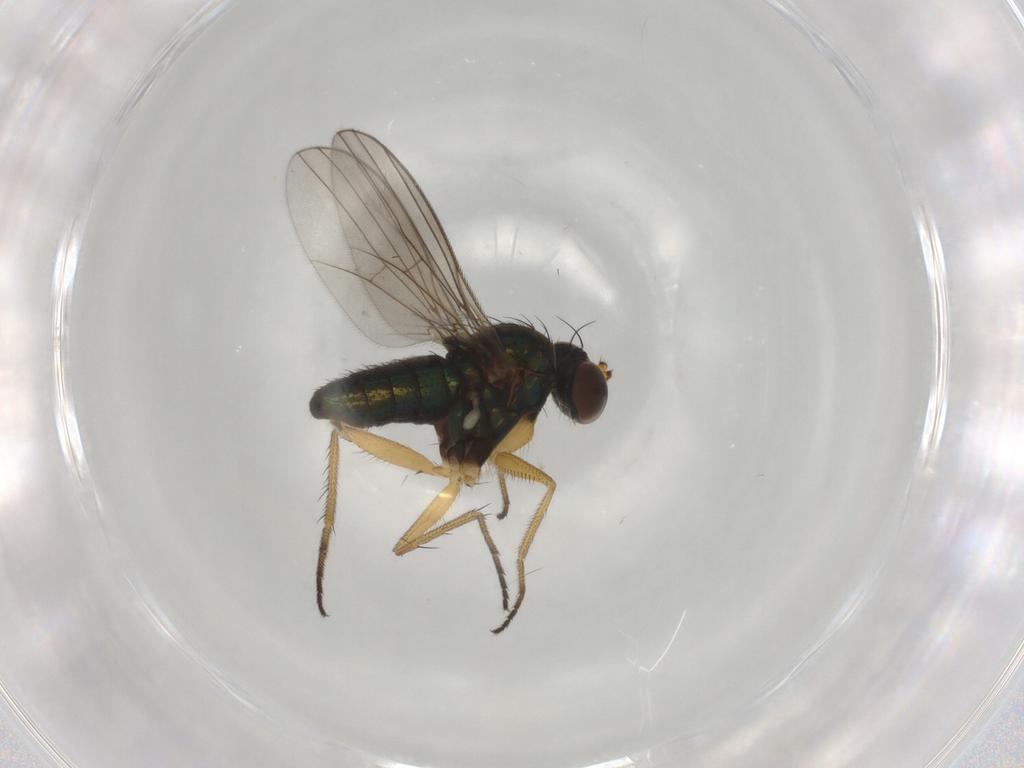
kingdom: Animalia
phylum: Arthropoda
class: Insecta
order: Diptera
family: Dolichopodidae
